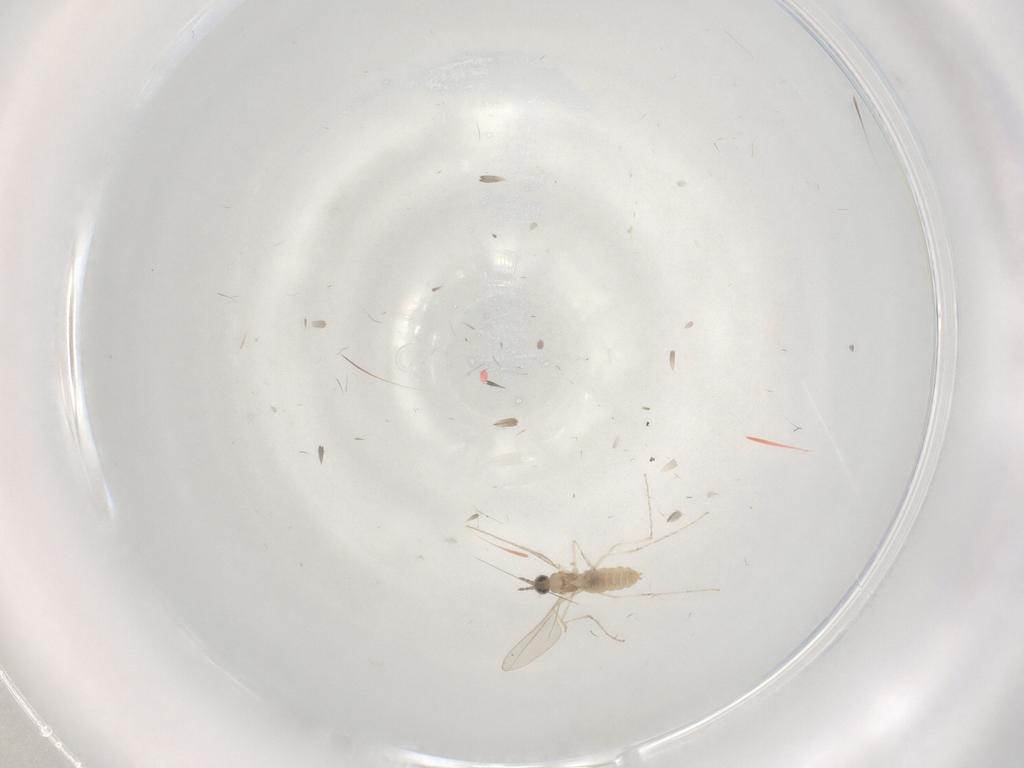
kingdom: Animalia
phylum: Arthropoda
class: Insecta
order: Diptera
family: Cecidomyiidae
